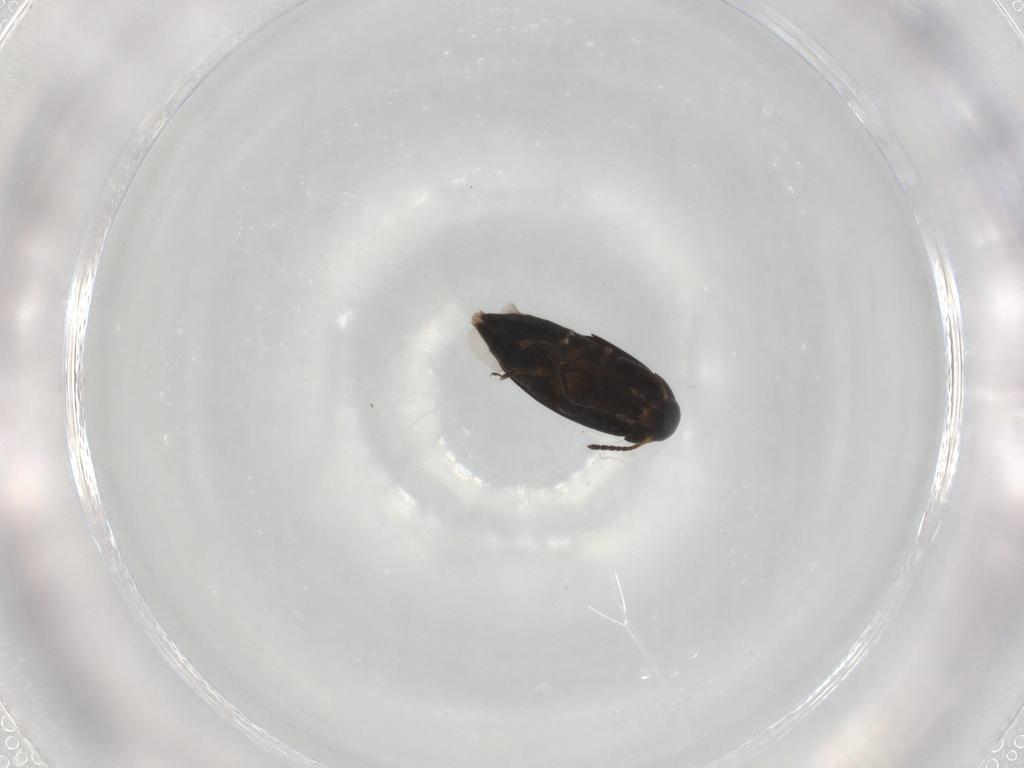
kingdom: Animalia
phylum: Arthropoda
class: Insecta
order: Coleoptera
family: Scraptiidae
